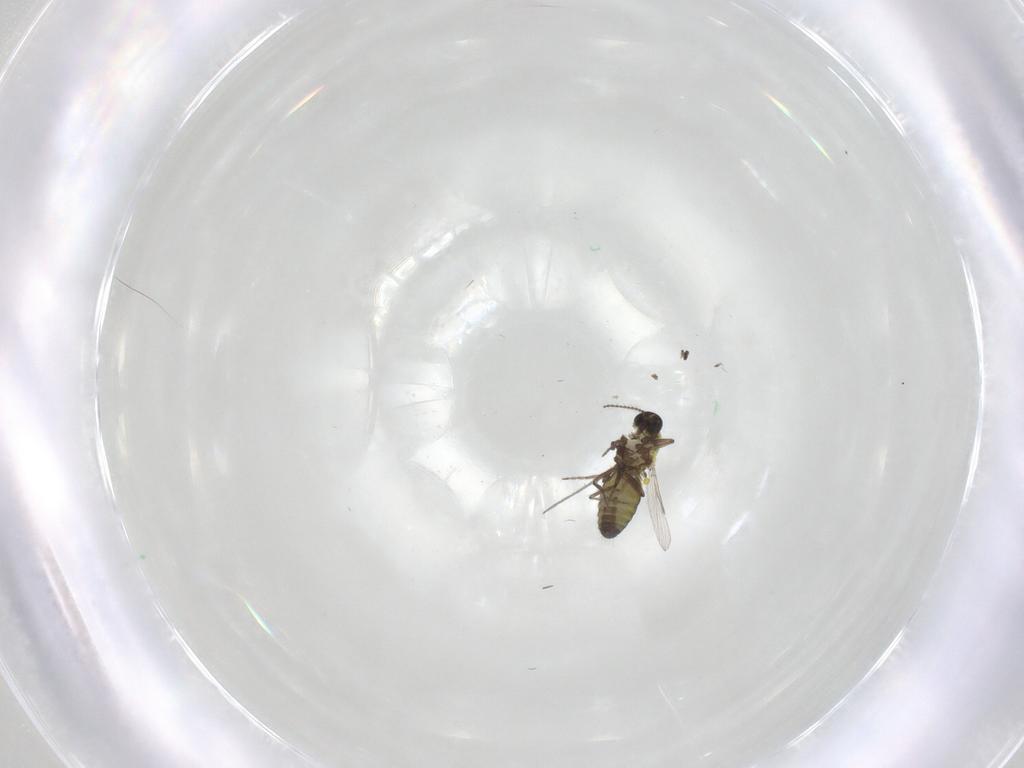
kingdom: Animalia
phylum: Arthropoda
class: Insecta
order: Diptera
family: Ceratopogonidae
